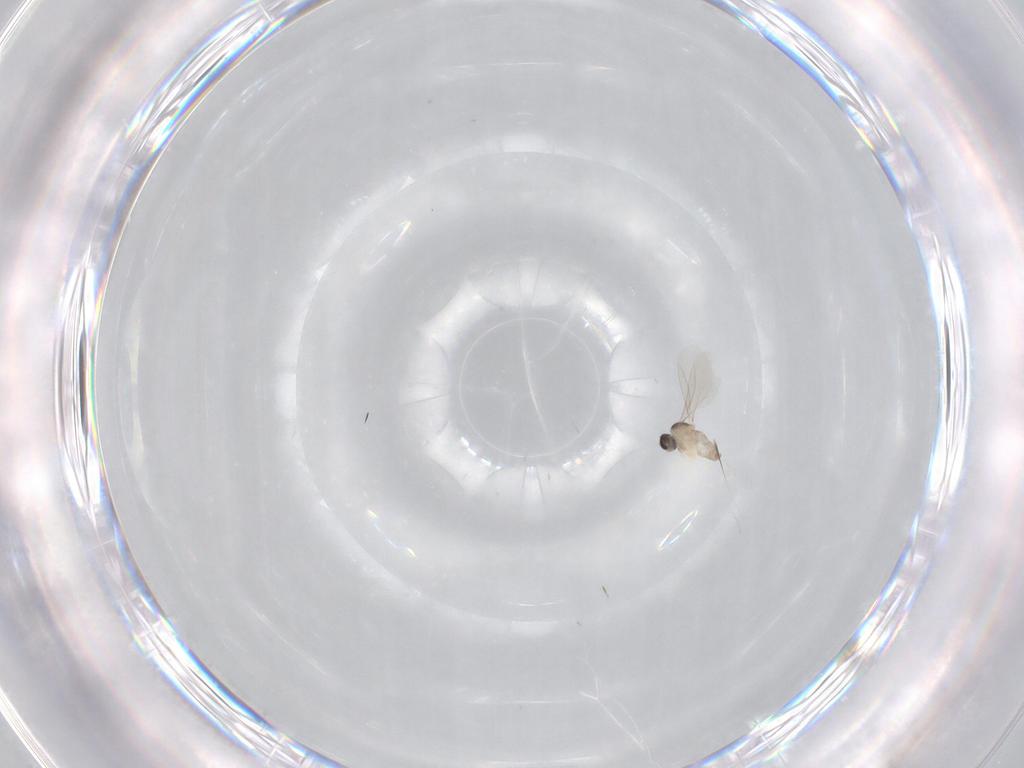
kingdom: Animalia
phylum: Arthropoda
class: Insecta
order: Diptera
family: Cecidomyiidae
